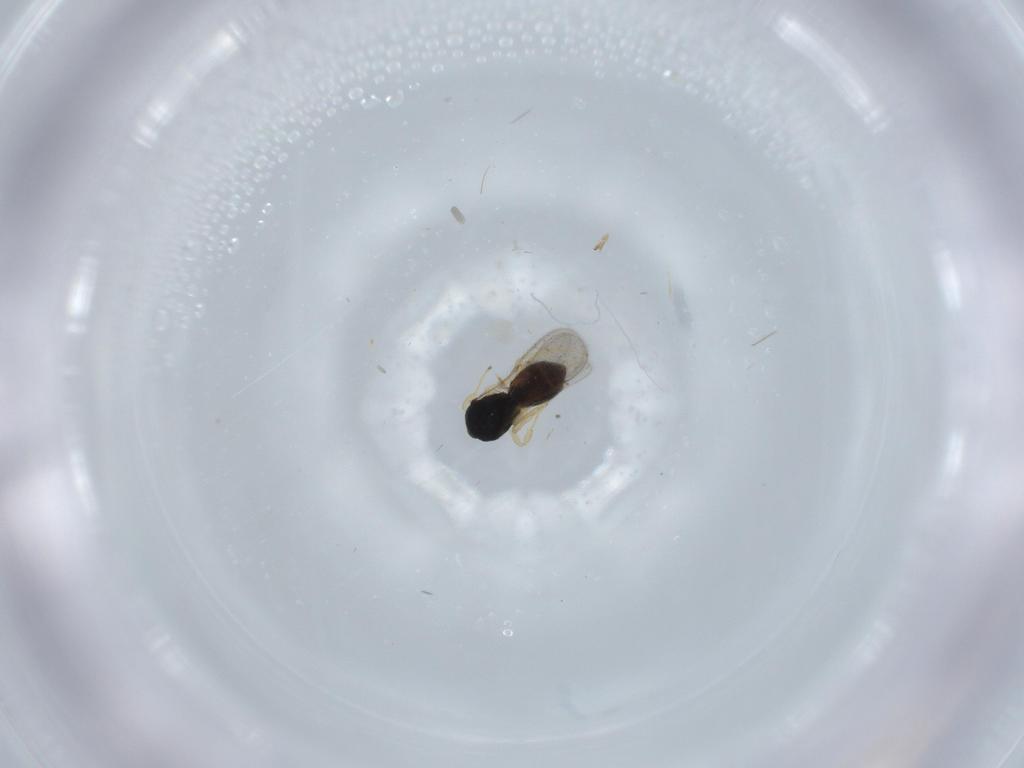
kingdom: Animalia
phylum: Arthropoda
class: Insecta
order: Hymenoptera
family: Scelionidae
